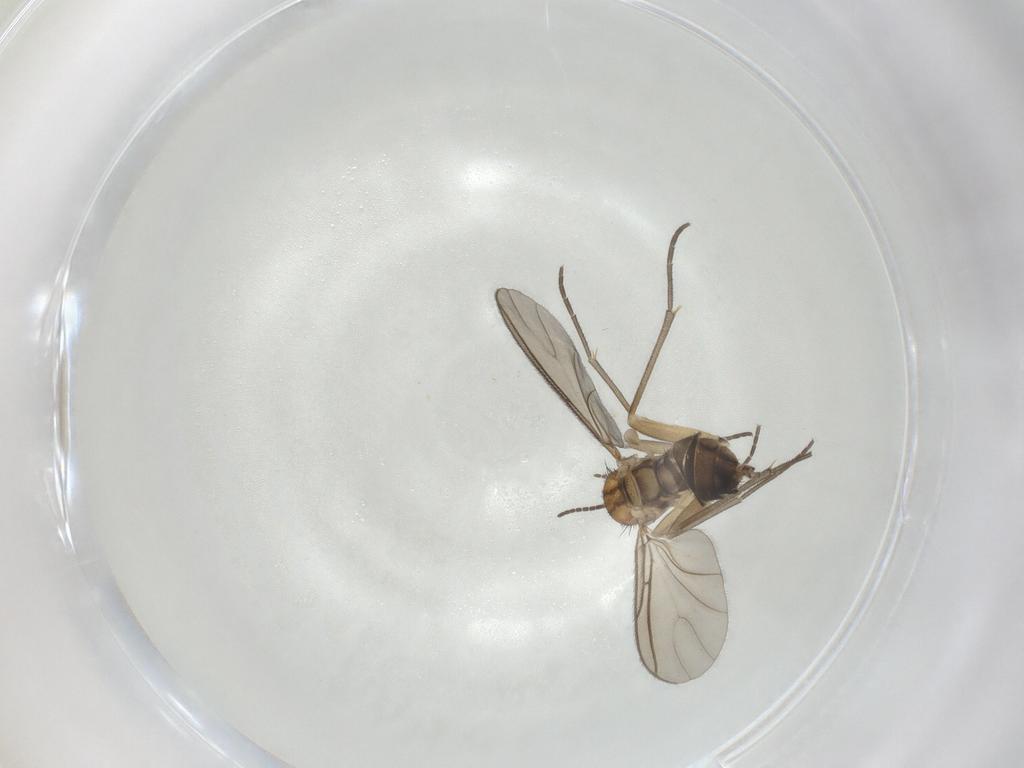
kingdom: Animalia
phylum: Arthropoda
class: Insecta
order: Diptera
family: Sciaridae
